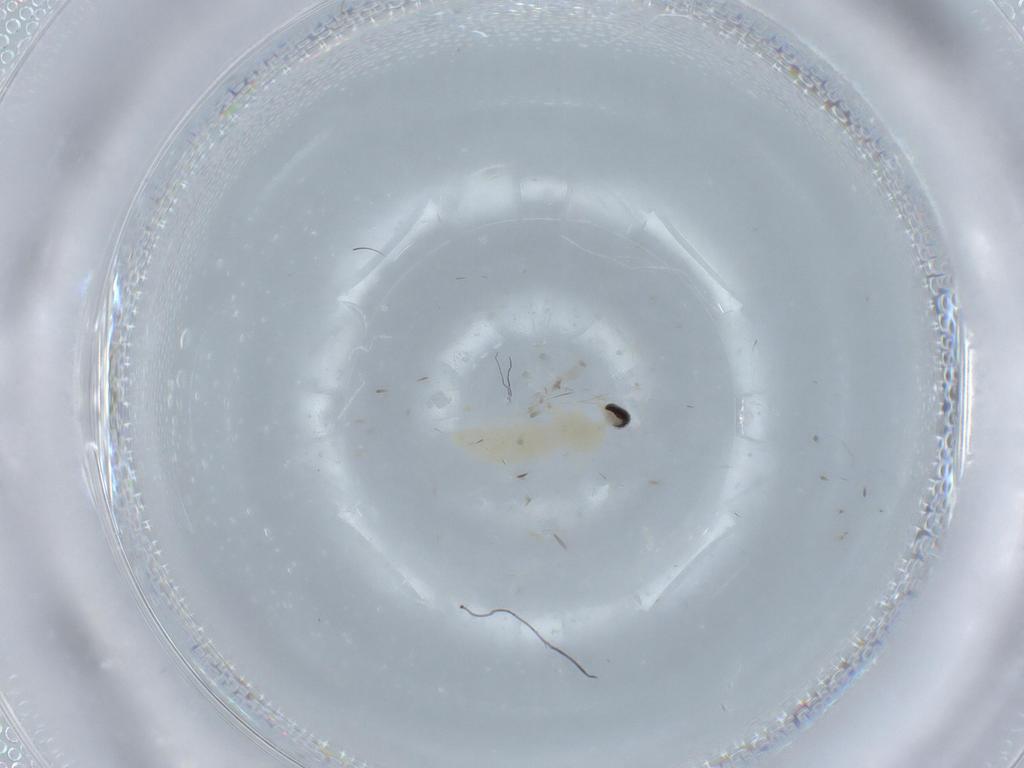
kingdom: Animalia
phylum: Arthropoda
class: Insecta
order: Diptera
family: Cecidomyiidae
